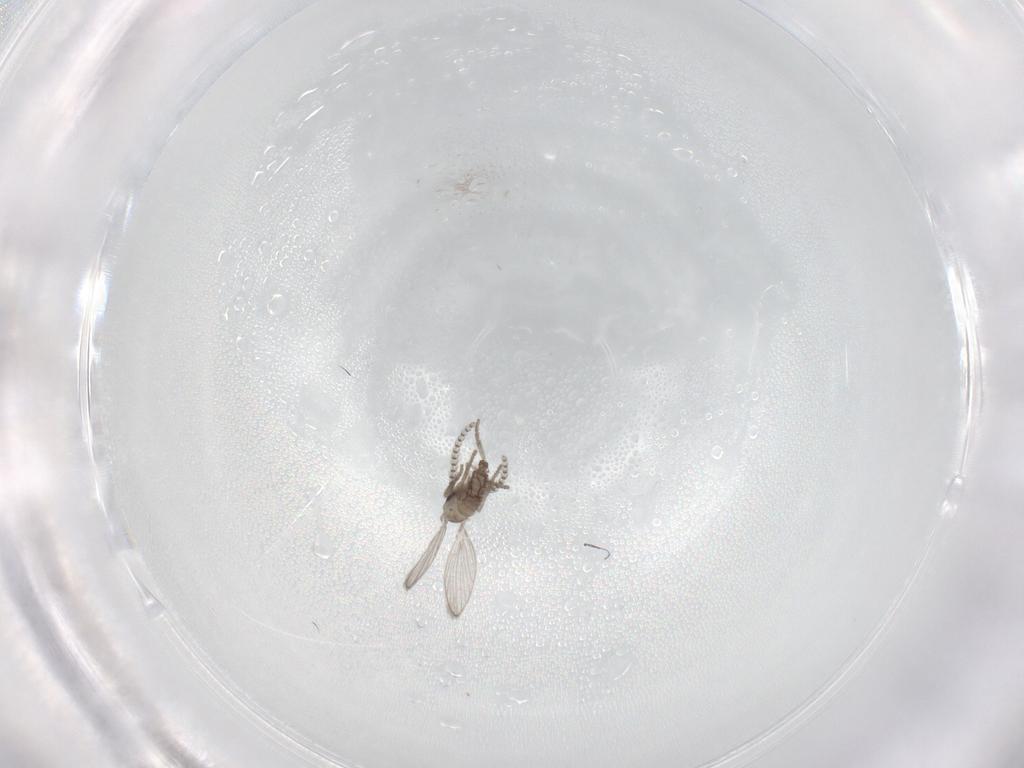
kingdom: Animalia
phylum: Arthropoda
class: Insecta
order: Diptera
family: Psychodidae
